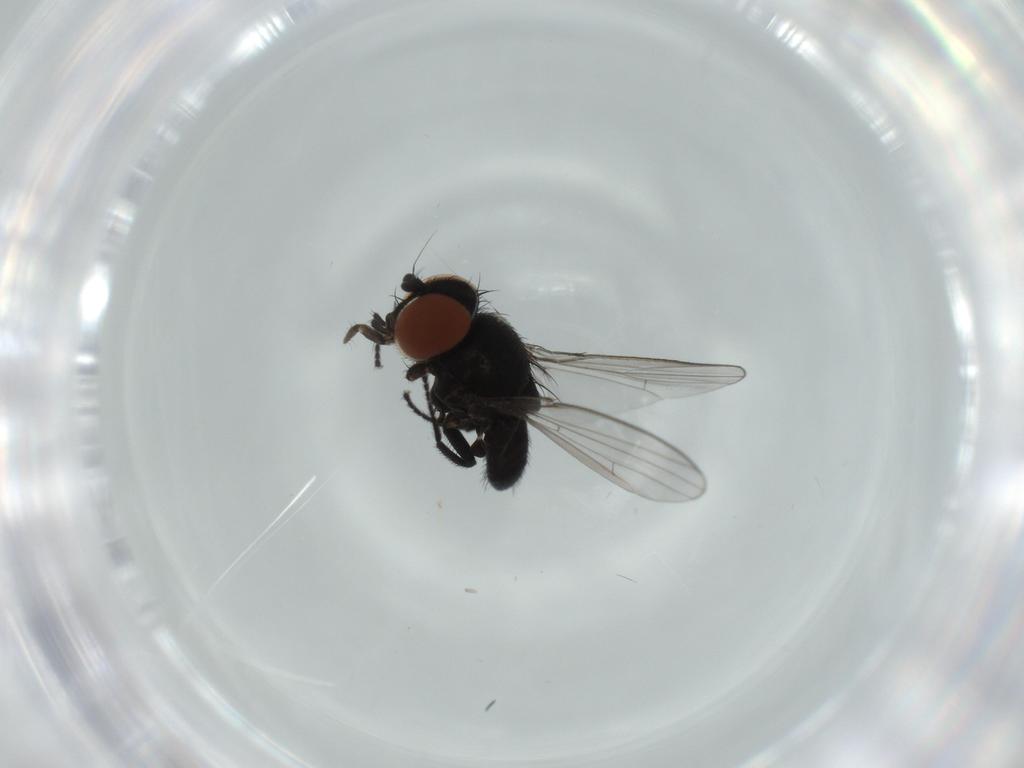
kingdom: Animalia
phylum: Arthropoda
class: Insecta
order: Diptera
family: Milichiidae
